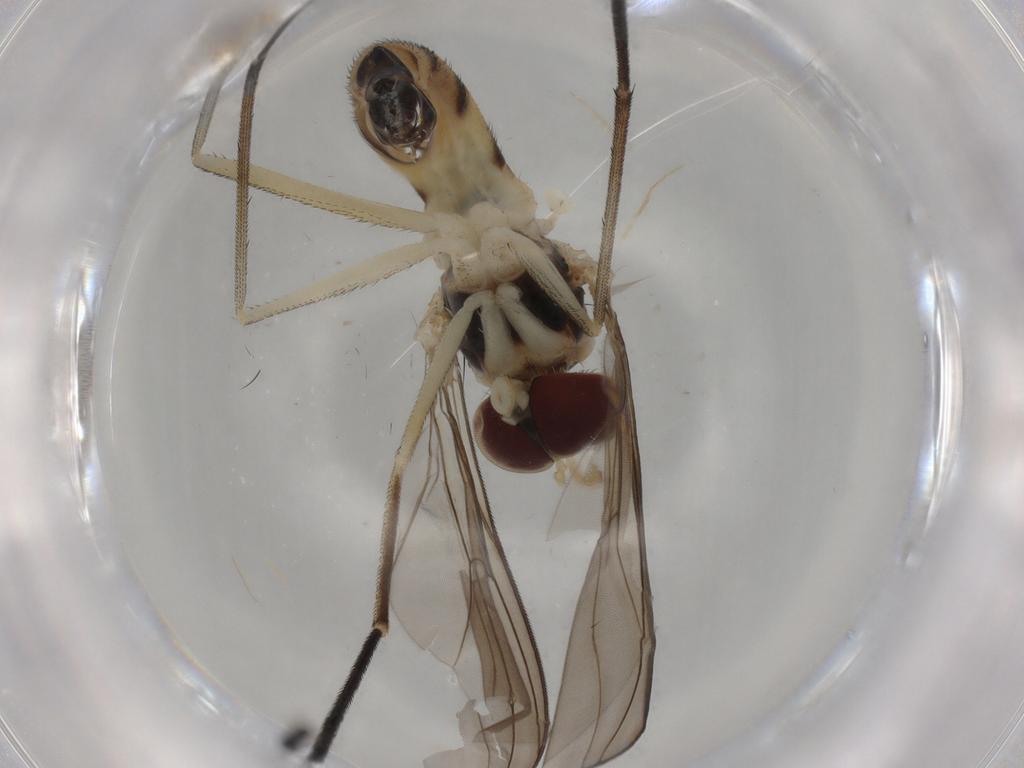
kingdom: Animalia
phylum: Arthropoda
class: Insecta
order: Diptera
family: Muscidae
